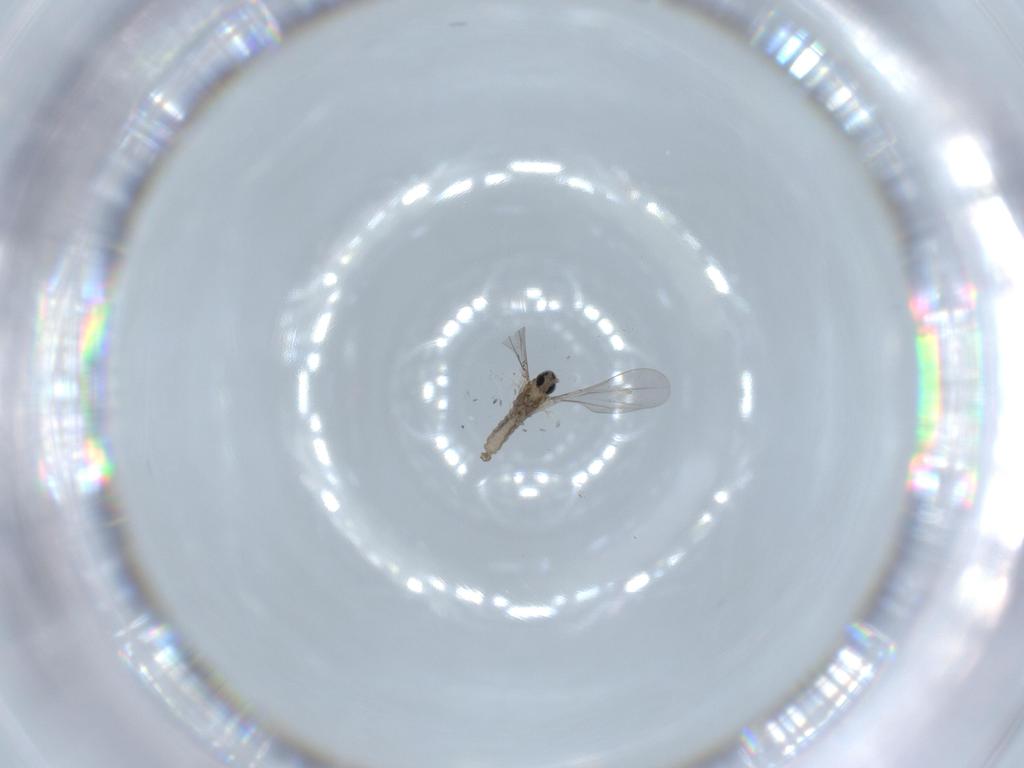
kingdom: Animalia
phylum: Arthropoda
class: Insecta
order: Diptera
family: Cecidomyiidae
